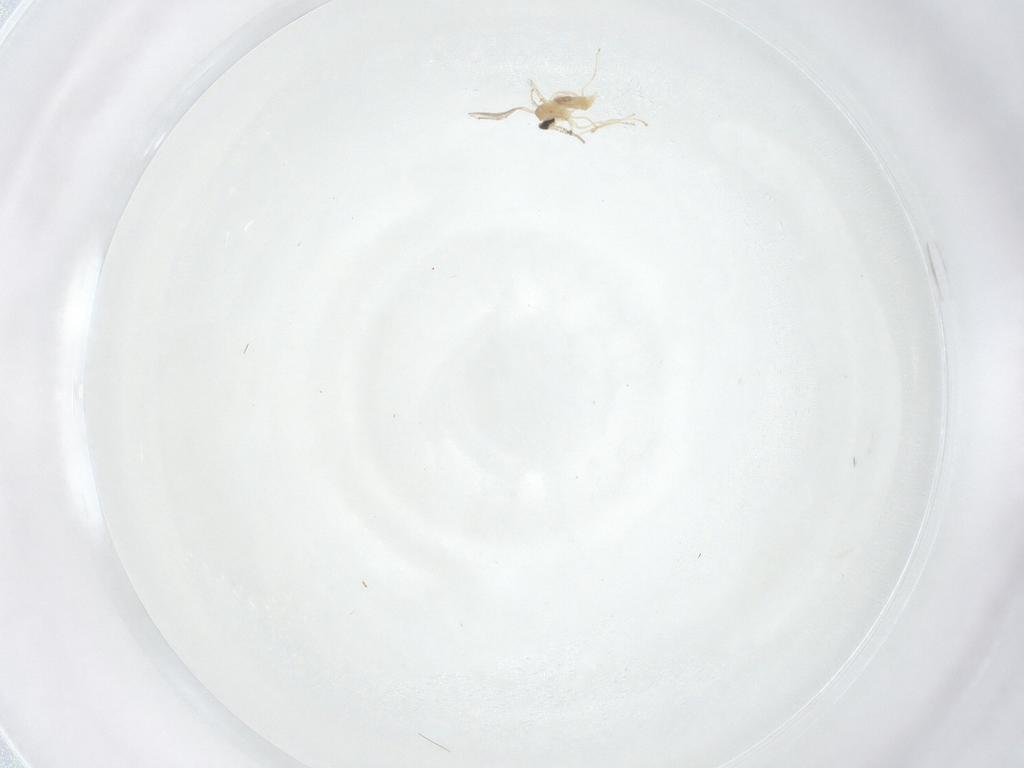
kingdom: Animalia
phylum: Arthropoda
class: Insecta
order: Diptera
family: Cecidomyiidae
